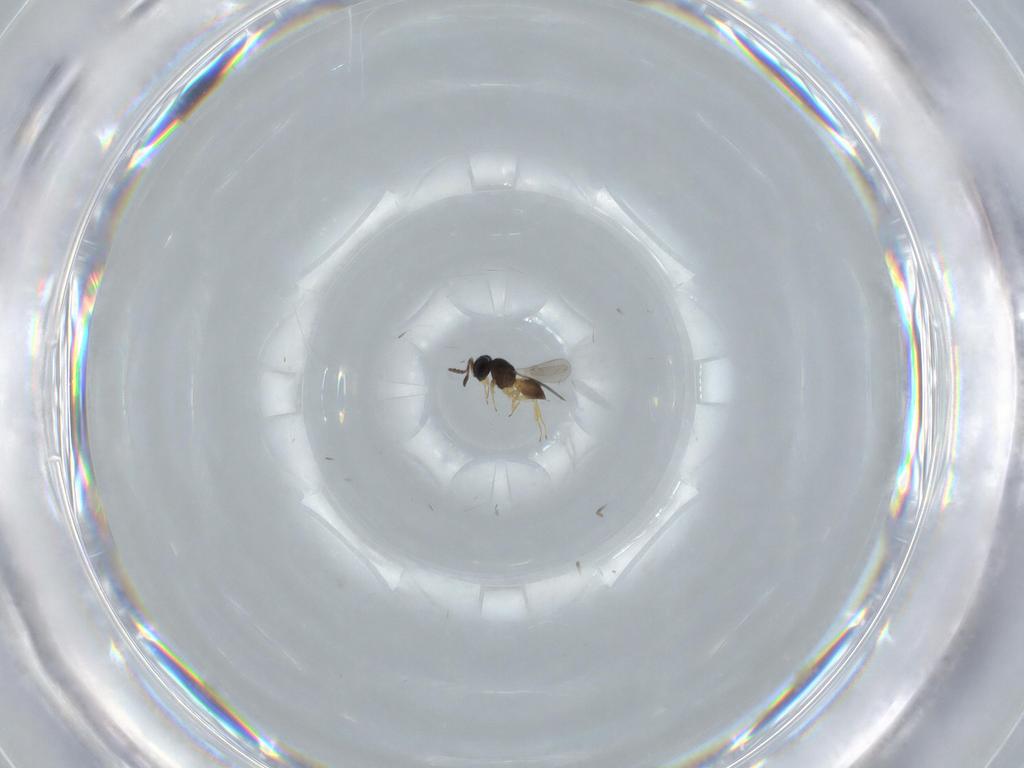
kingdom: Animalia
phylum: Arthropoda
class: Insecta
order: Hymenoptera
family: Scelionidae
